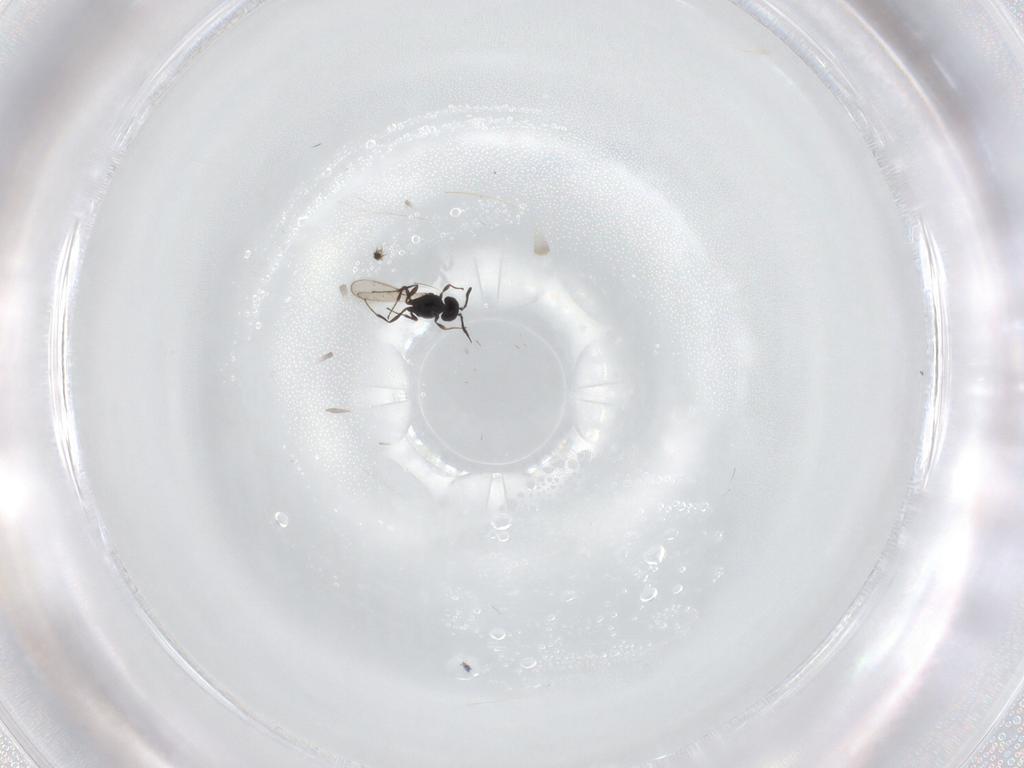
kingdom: Animalia
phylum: Arthropoda
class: Insecta
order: Hymenoptera
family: Scelionidae
